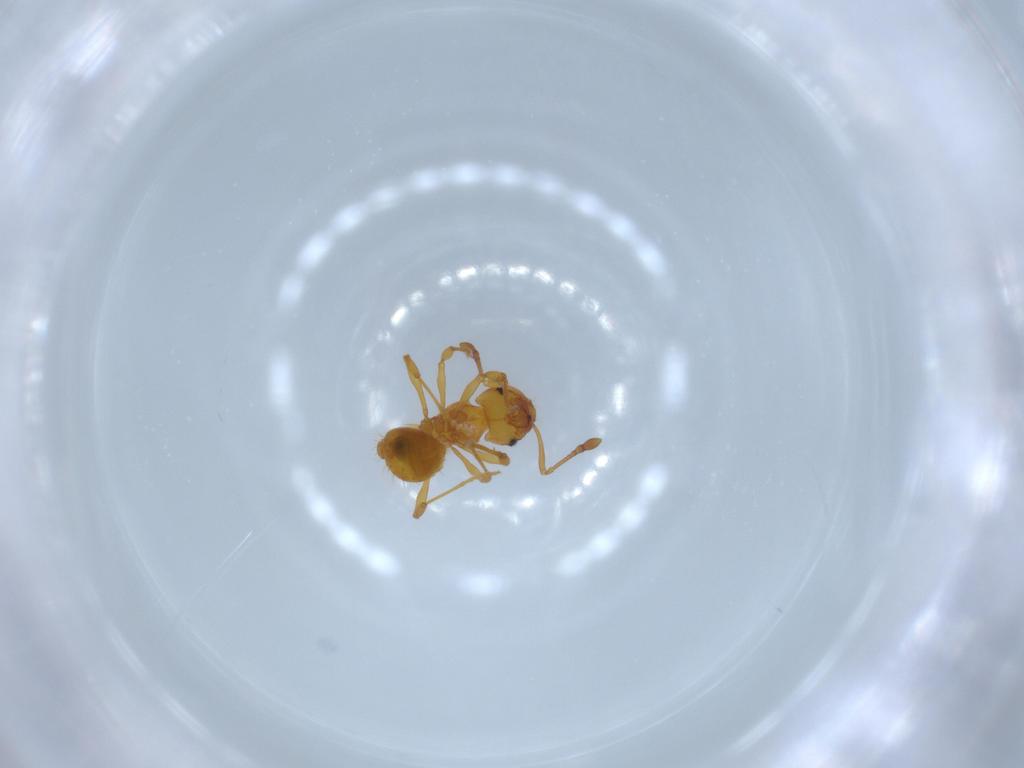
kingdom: Animalia
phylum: Arthropoda
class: Insecta
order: Hymenoptera
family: Formicidae
